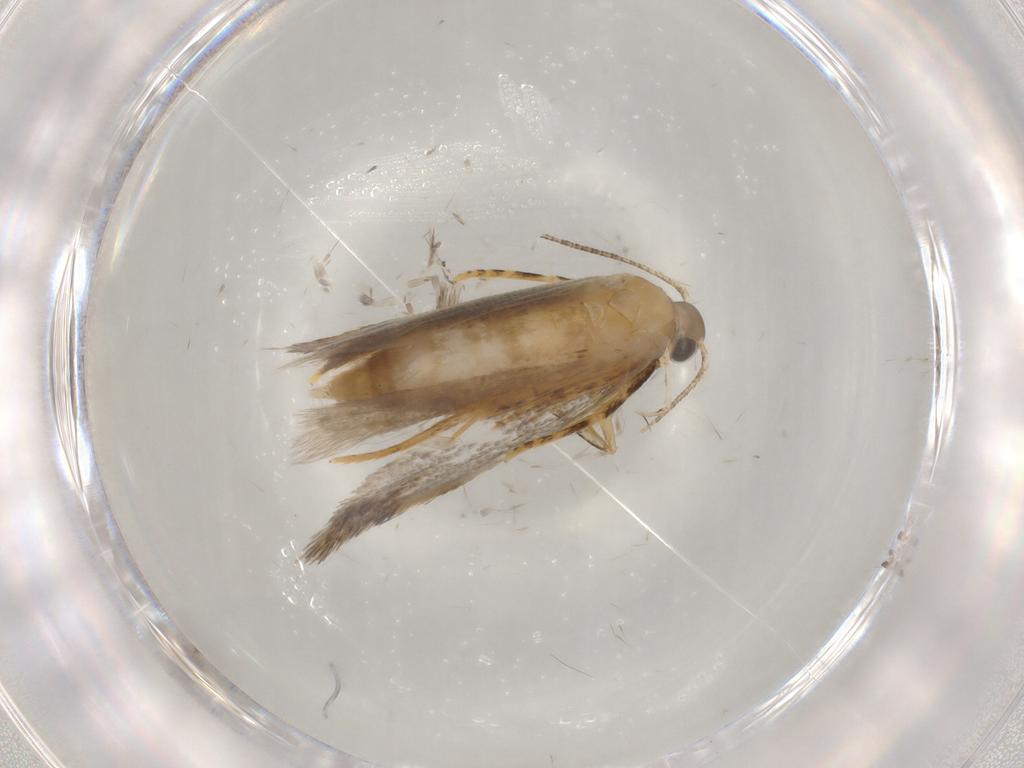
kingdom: Animalia
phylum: Arthropoda
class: Insecta
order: Lepidoptera
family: Autostichidae
